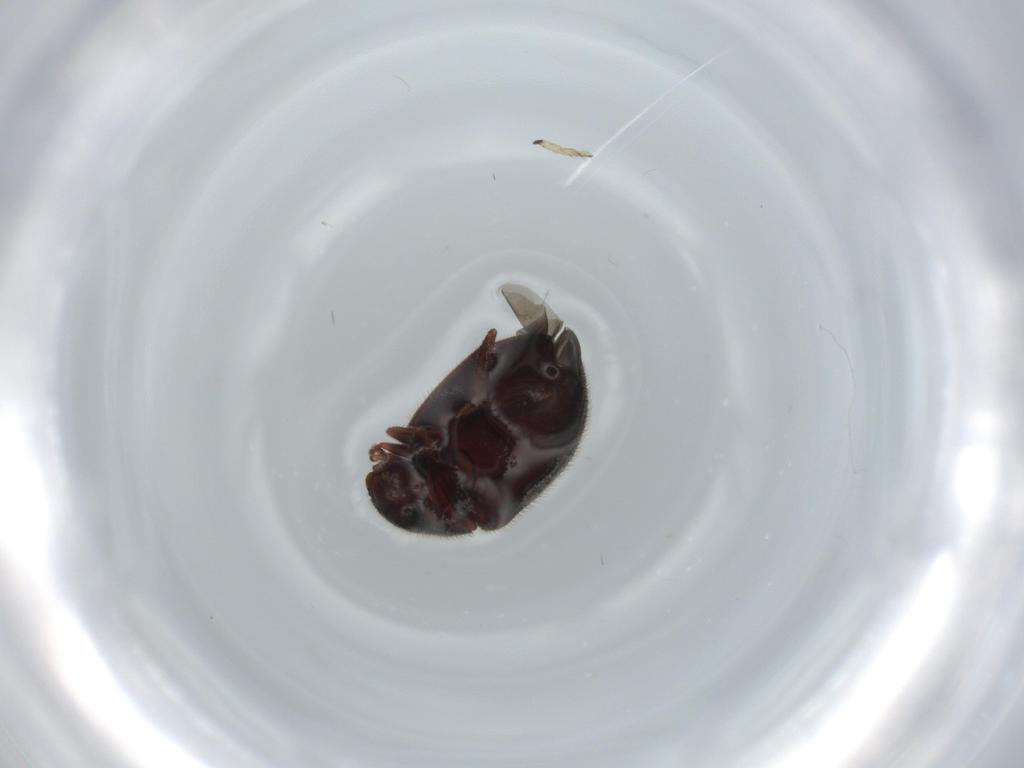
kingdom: Animalia
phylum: Arthropoda
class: Insecta
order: Coleoptera
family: Sphindidae
